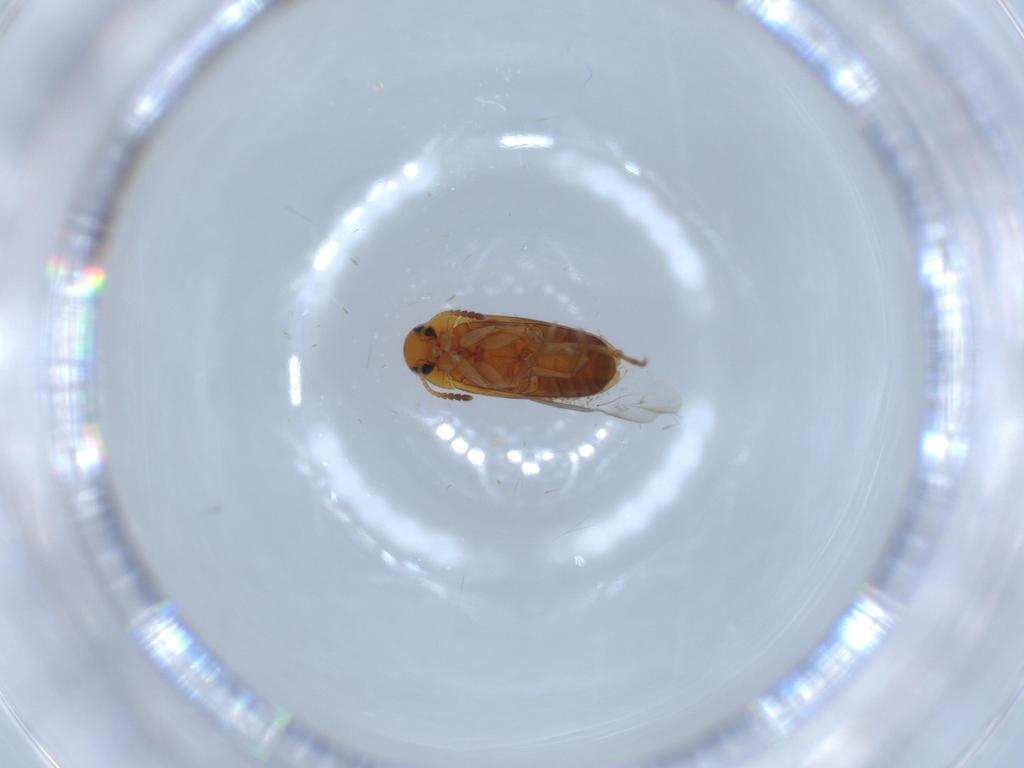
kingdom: Animalia
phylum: Arthropoda
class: Insecta
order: Coleoptera
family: Scraptiidae
